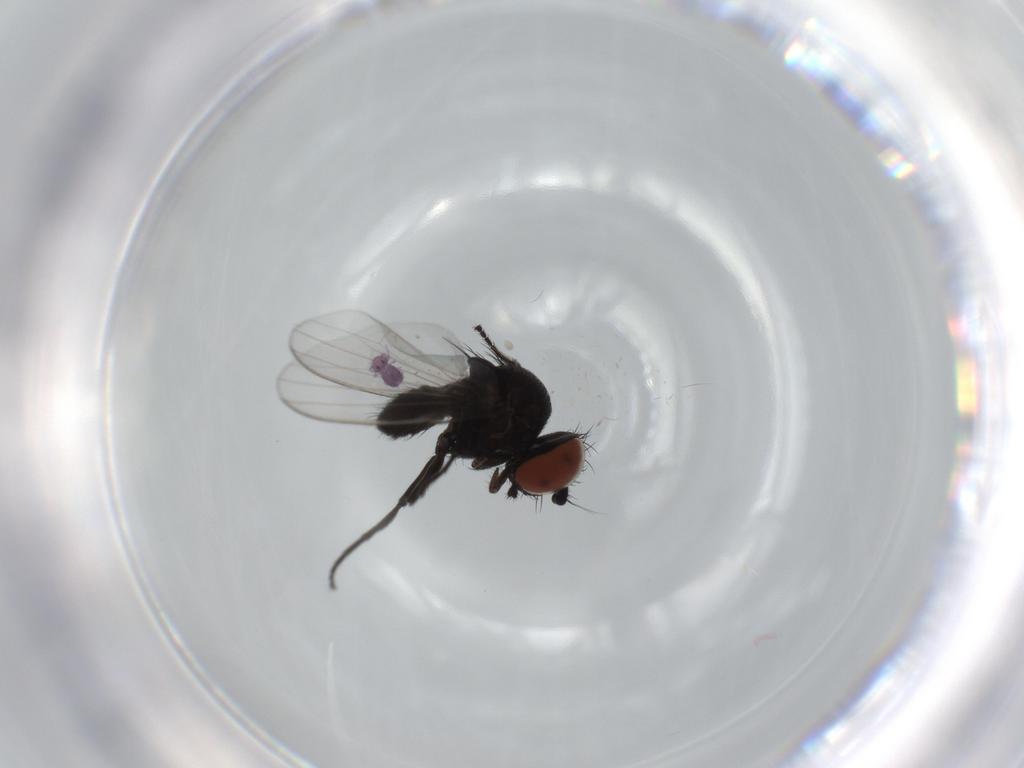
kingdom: Animalia
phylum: Arthropoda
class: Insecta
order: Diptera
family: Milichiidae
